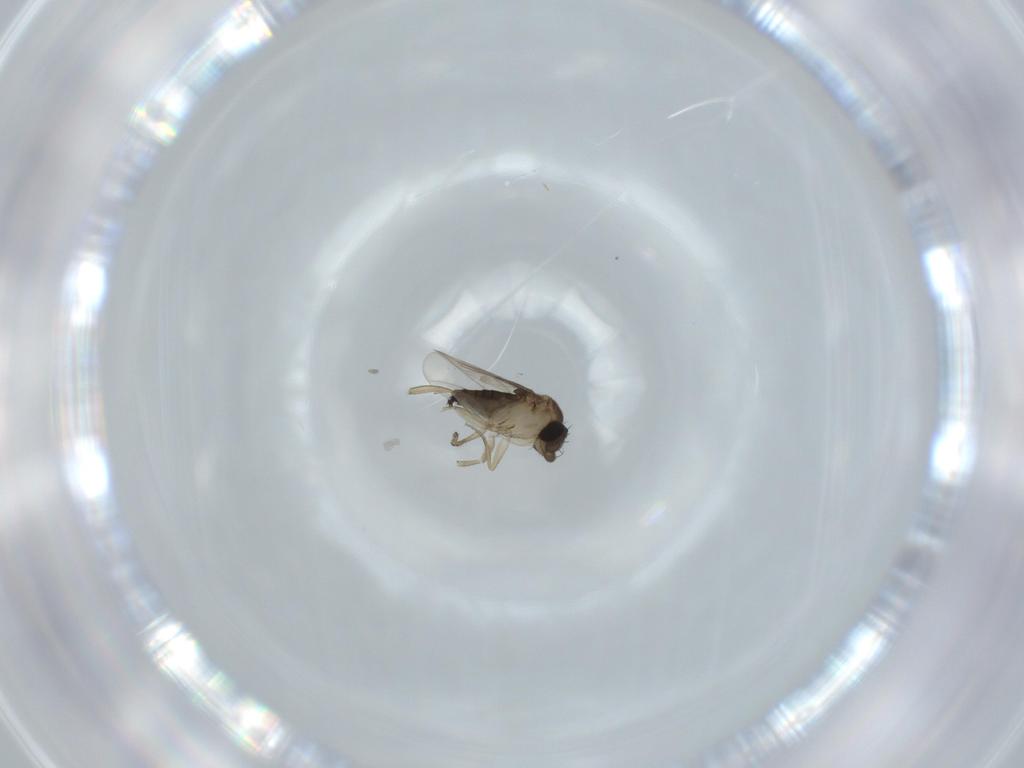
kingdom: Animalia
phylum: Arthropoda
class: Insecta
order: Diptera
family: Phoridae
